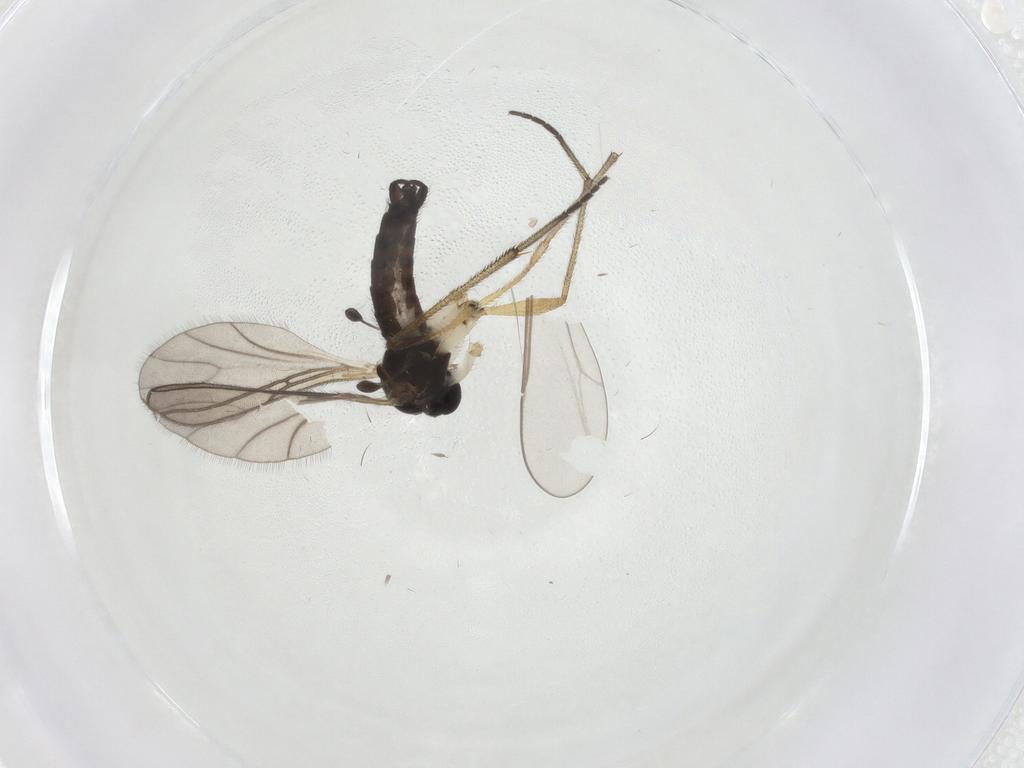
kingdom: Animalia
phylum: Arthropoda
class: Insecta
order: Diptera
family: Sciaridae
